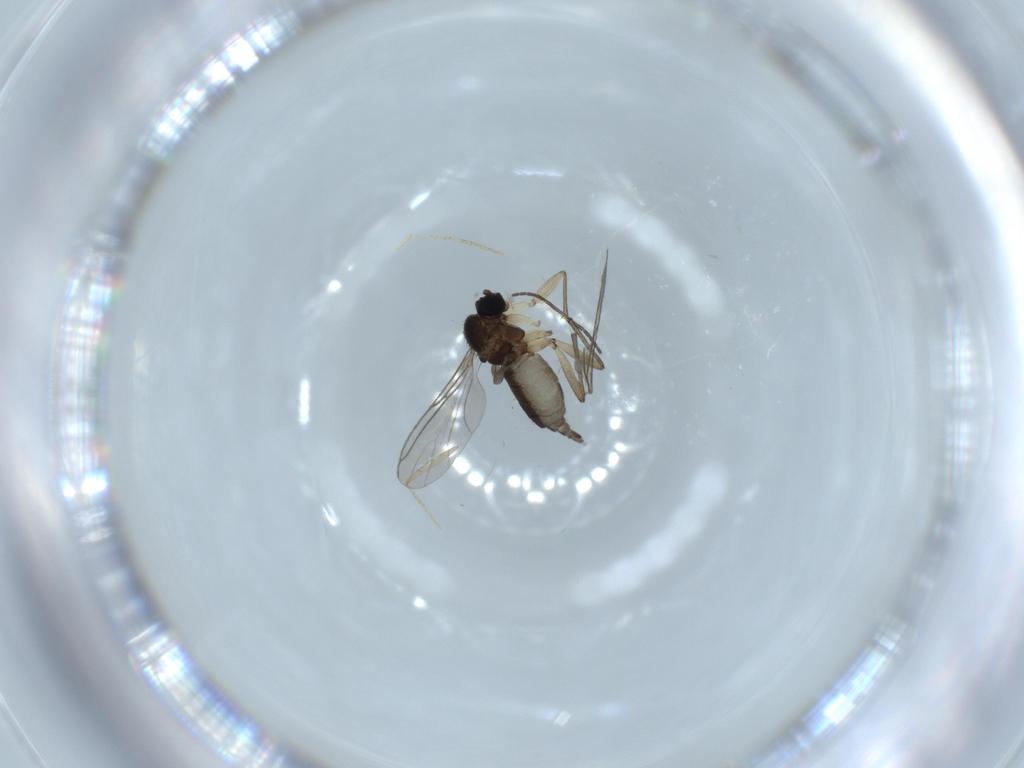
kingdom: Animalia
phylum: Arthropoda
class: Insecta
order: Diptera
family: Sciaridae
